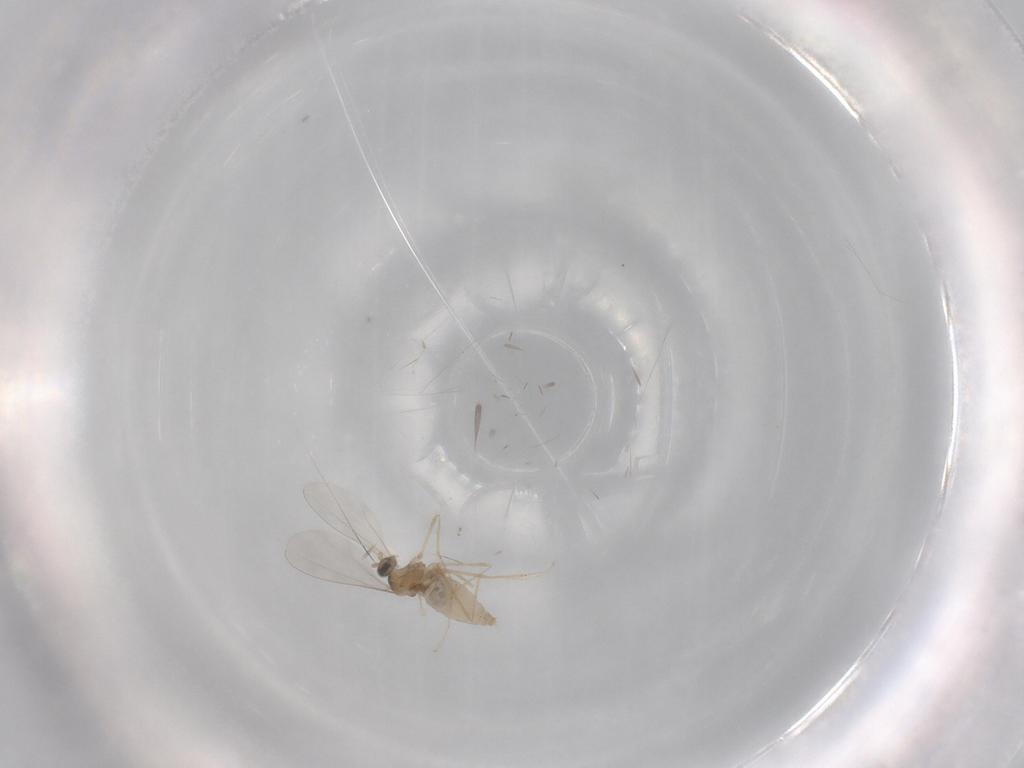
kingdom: Animalia
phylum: Arthropoda
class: Insecta
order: Diptera
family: Cecidomyiidae
